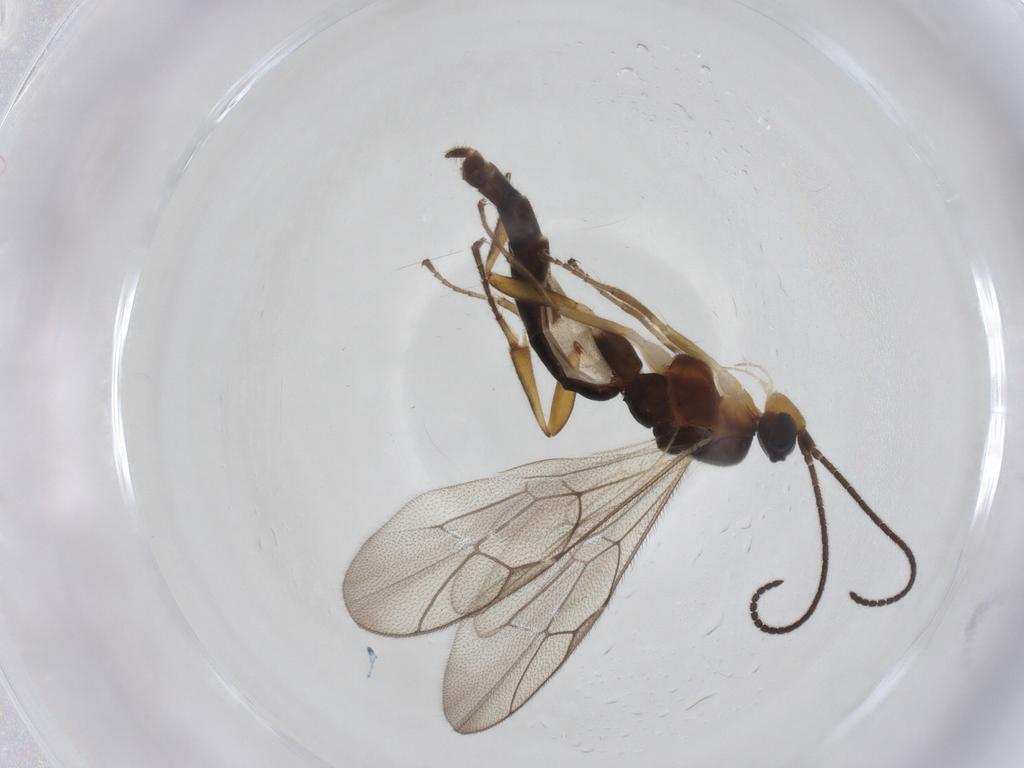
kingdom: Animalia
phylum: Arthropoda
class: Insecta
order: Hymenoptera
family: Ichneumonidae
